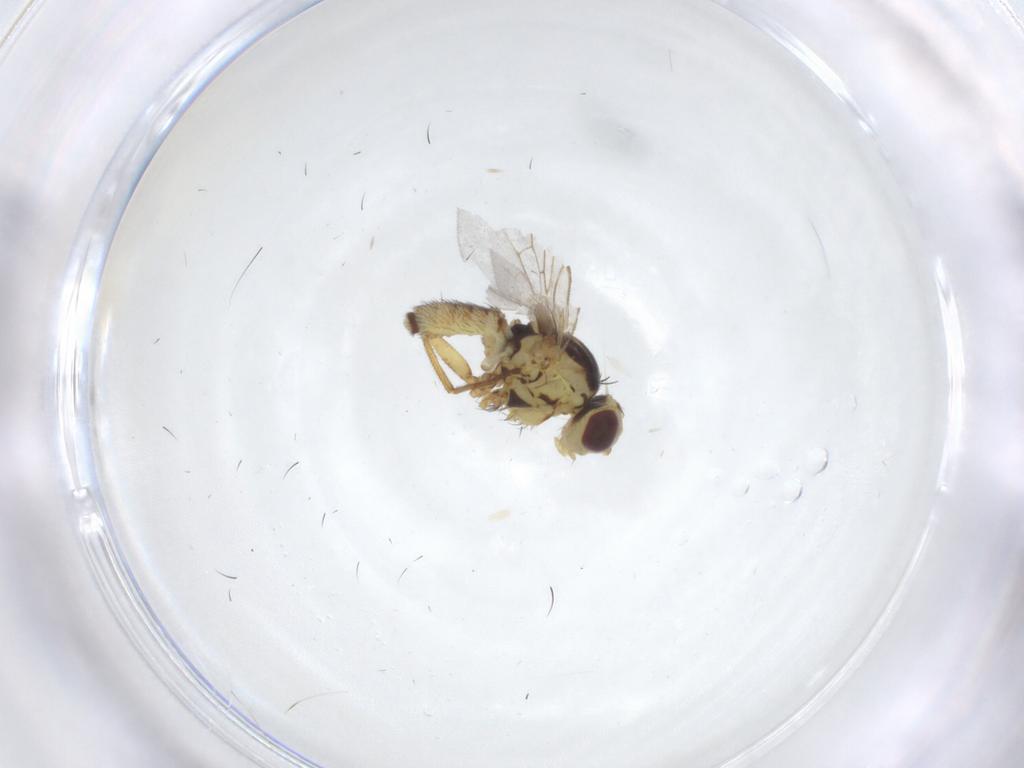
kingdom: Animalia
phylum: Arthropoda
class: Insecta
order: Diptera
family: Agromyzidae
